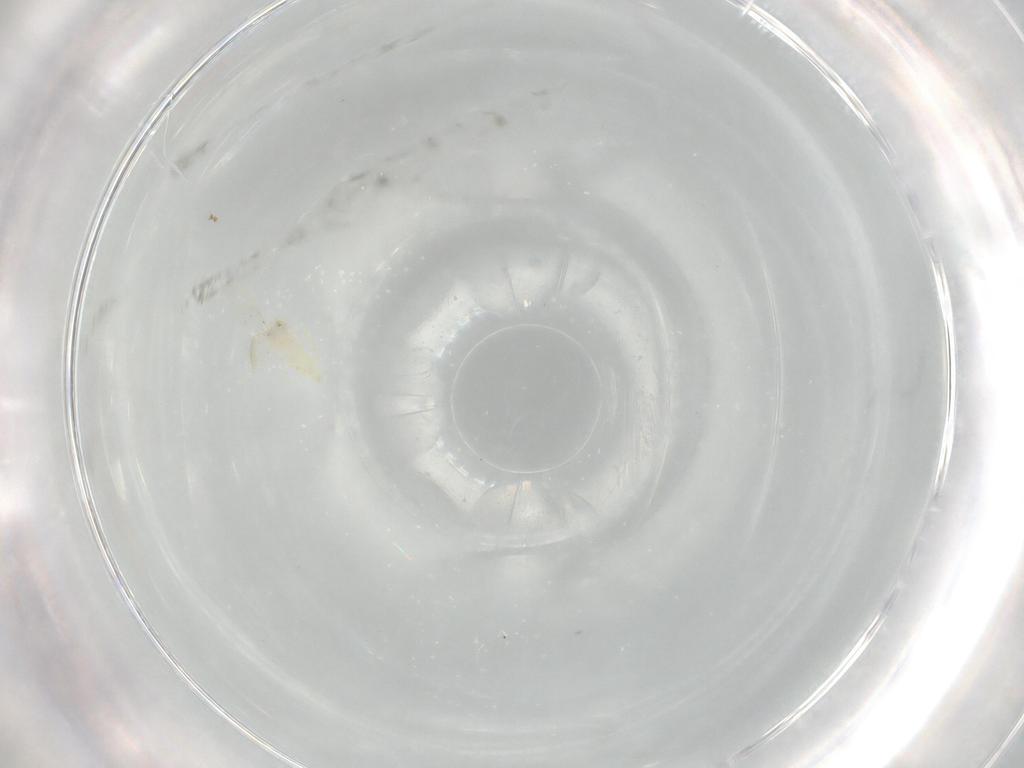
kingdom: Animalia
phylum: Arthropoda
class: Insecta
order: Hemiptera
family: Aleyrodidae
